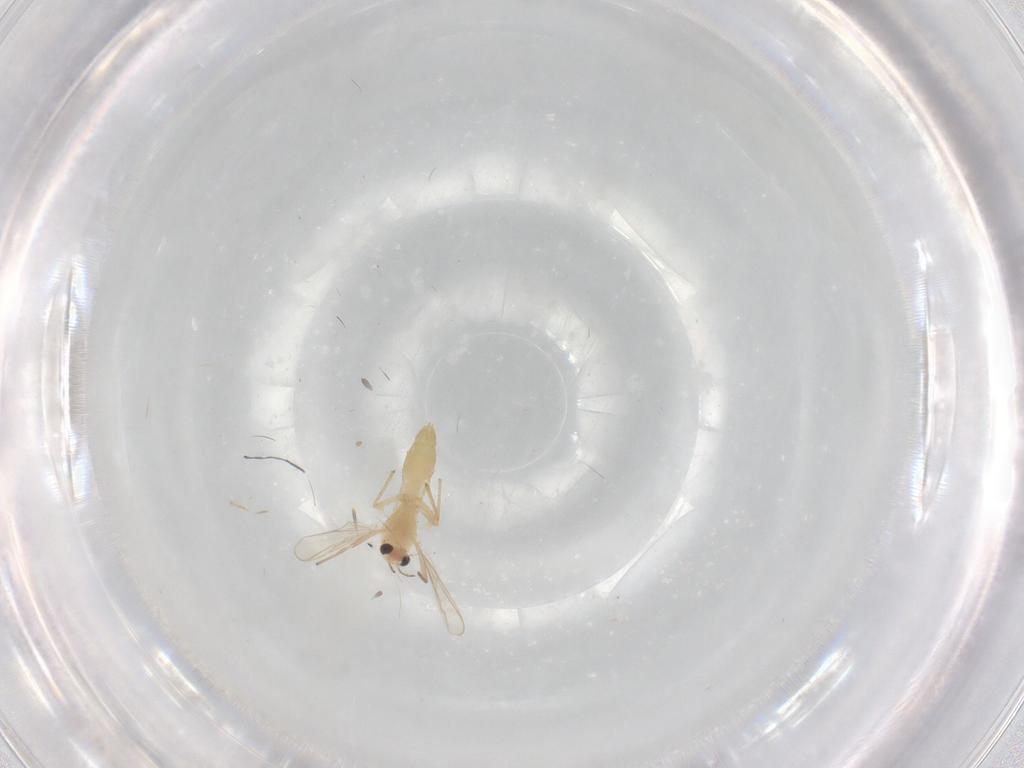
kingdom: Animalia
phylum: Arthropoda
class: Insecta
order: Diptera
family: Chironomidae
